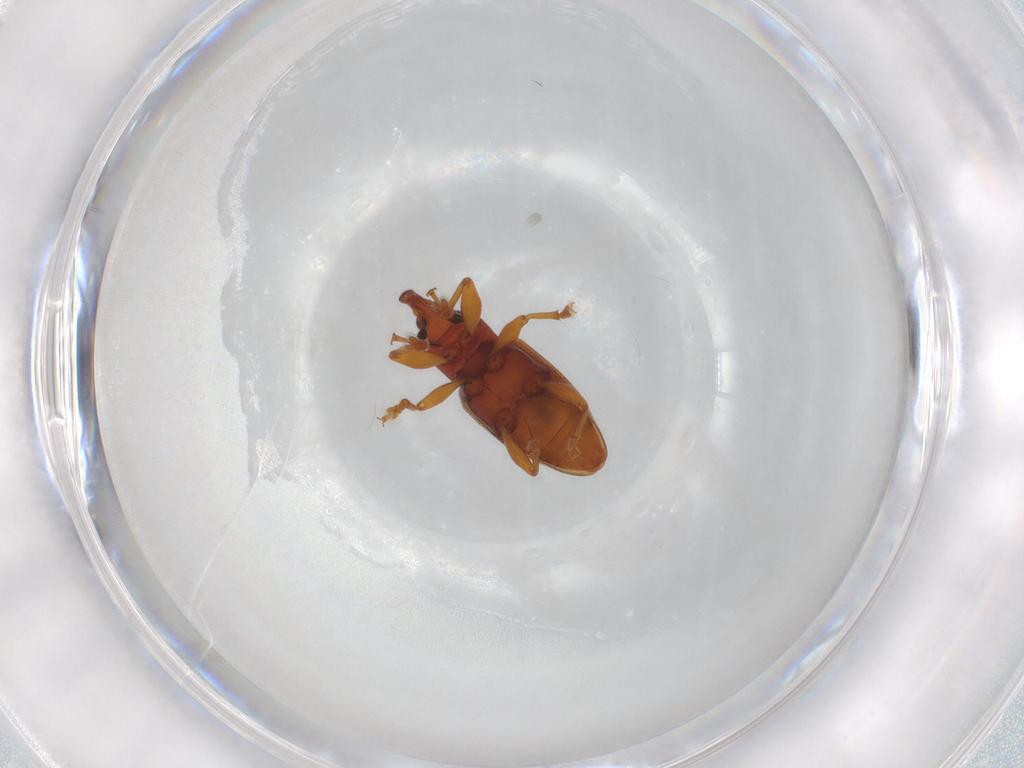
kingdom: Animalia
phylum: Arthropoda
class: Insecta
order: Coleoptera
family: Curculionidae
